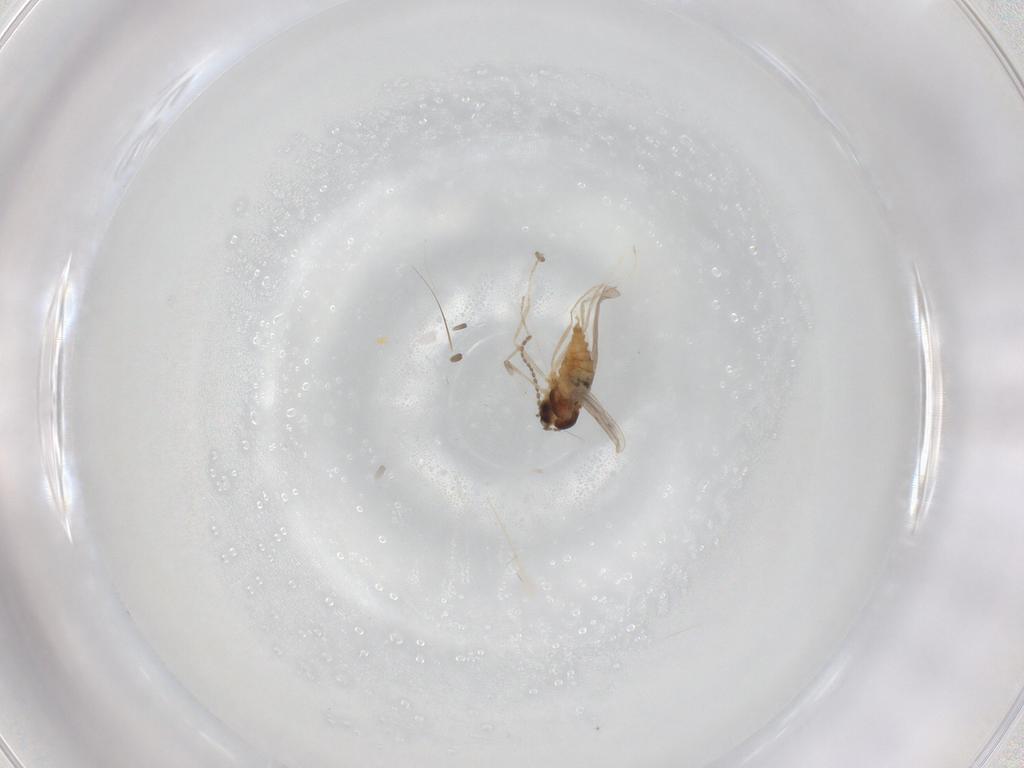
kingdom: Animalia
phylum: Arthropoda
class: Insecta
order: Diptera
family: Cecidomyiidae
